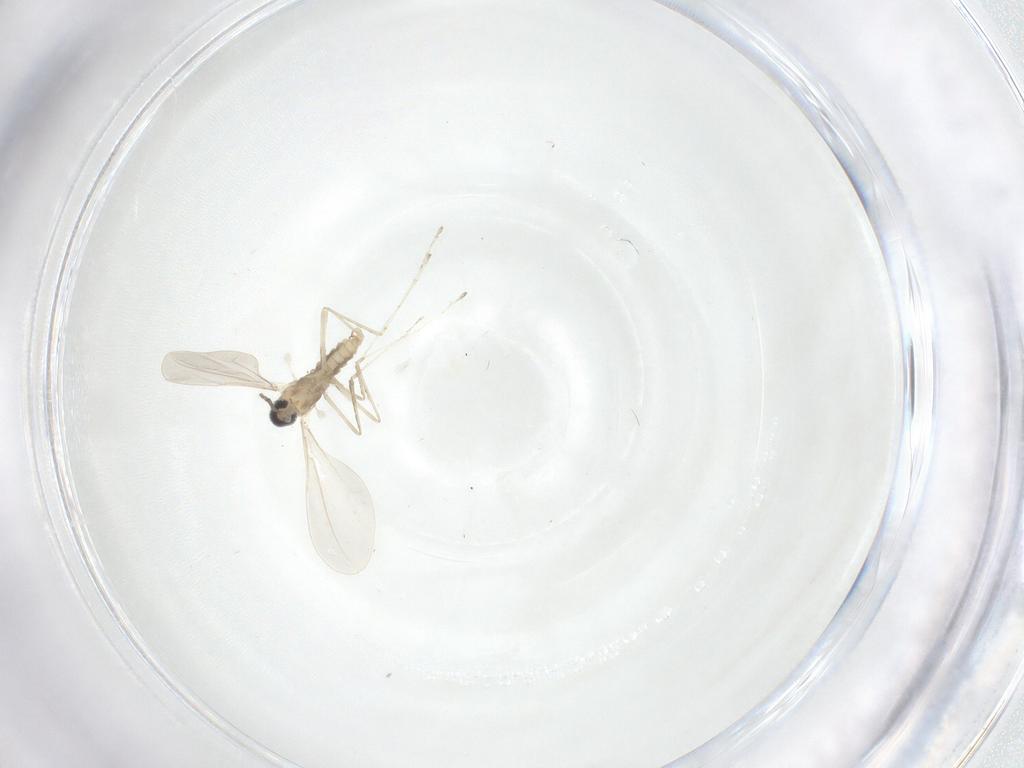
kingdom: Animalia
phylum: Arthropoda
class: Insecta
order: Diptera
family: Cecidomyiidae
